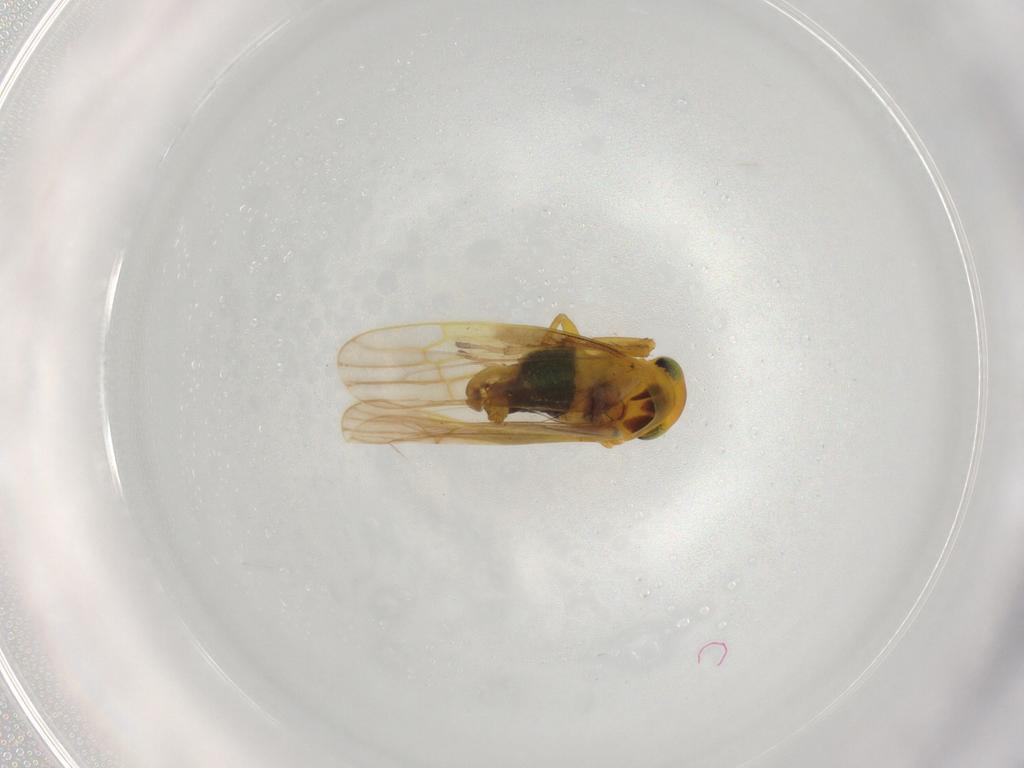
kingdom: Animalia
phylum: Arthropoda
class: Insecta
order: Hemiptera
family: Cicadellidae
